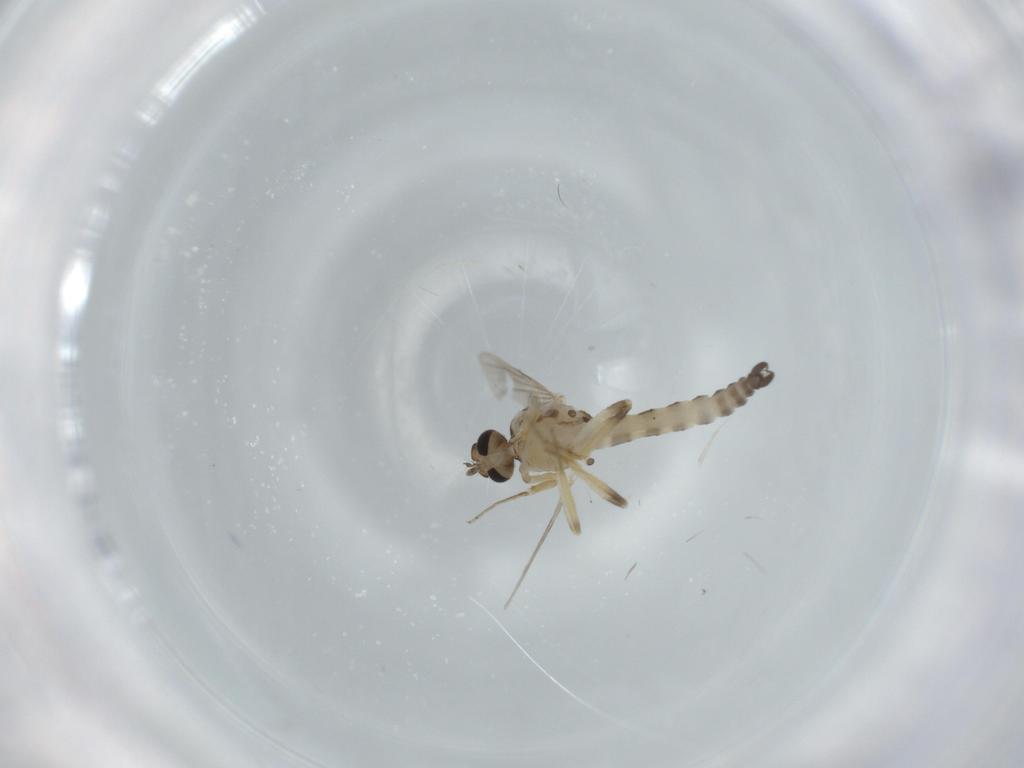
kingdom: Animalia
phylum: Arthropoda
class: Insecta
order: Diptera
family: Ceratopogonidae
